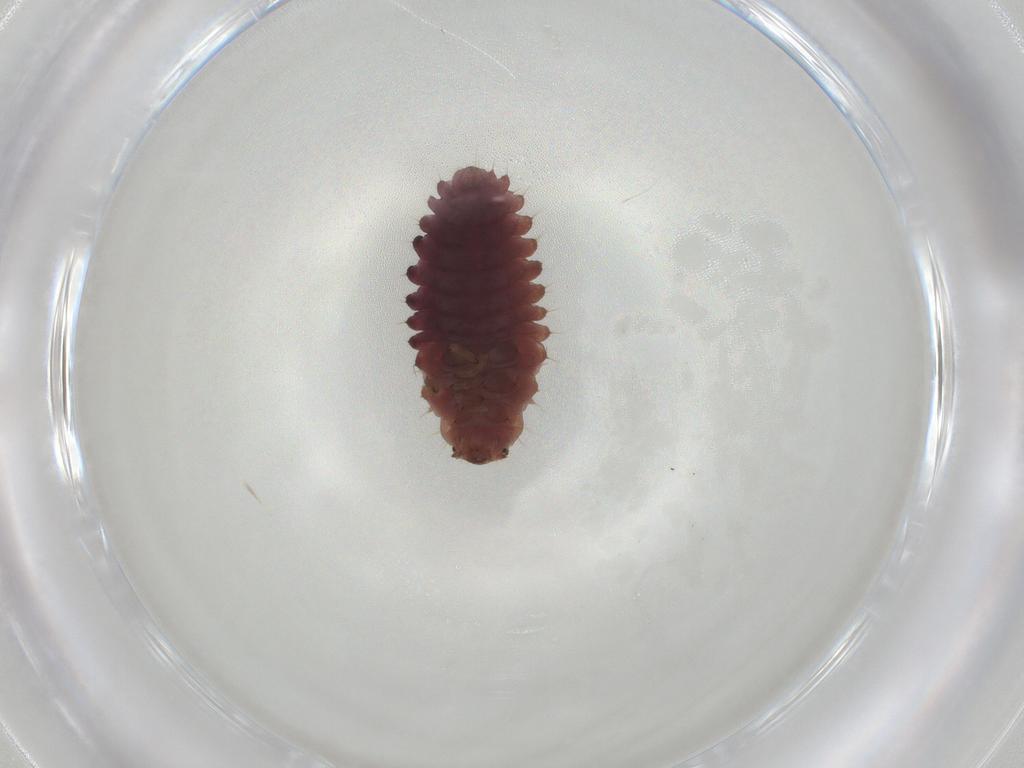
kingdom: Animalia
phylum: Arthropoda
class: Insecta
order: Coleoptera
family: Coccinellidae
